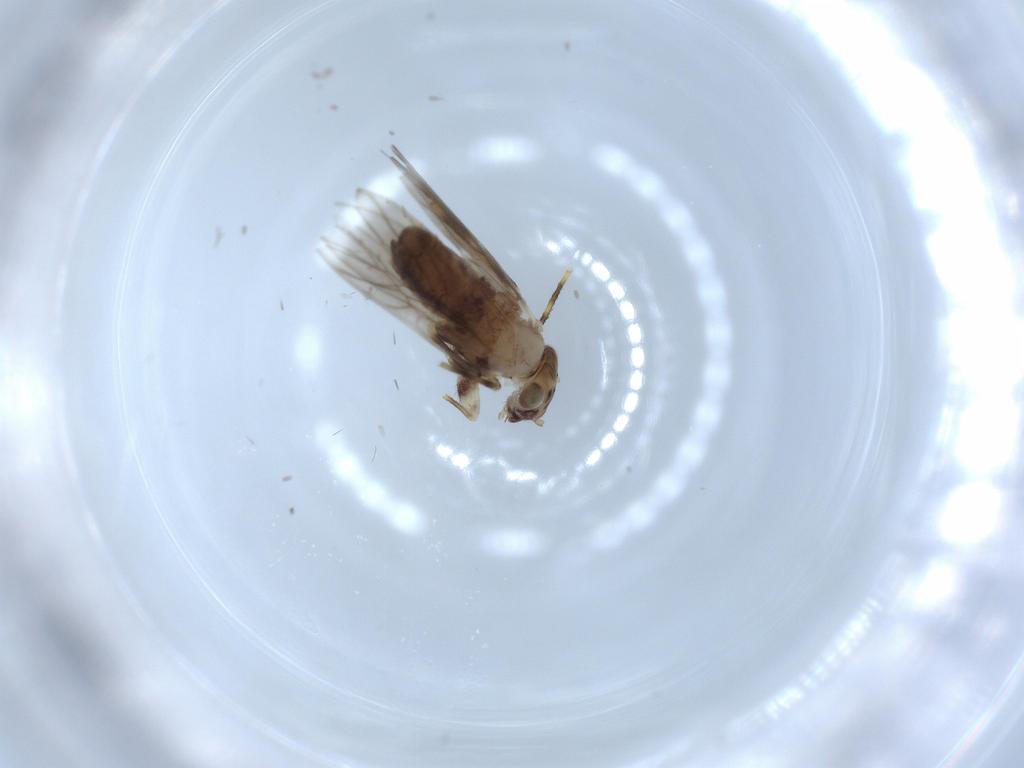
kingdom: Animalia
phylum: Arthropoda
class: Insecta
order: Psocodea
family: Lepidopsocidae
